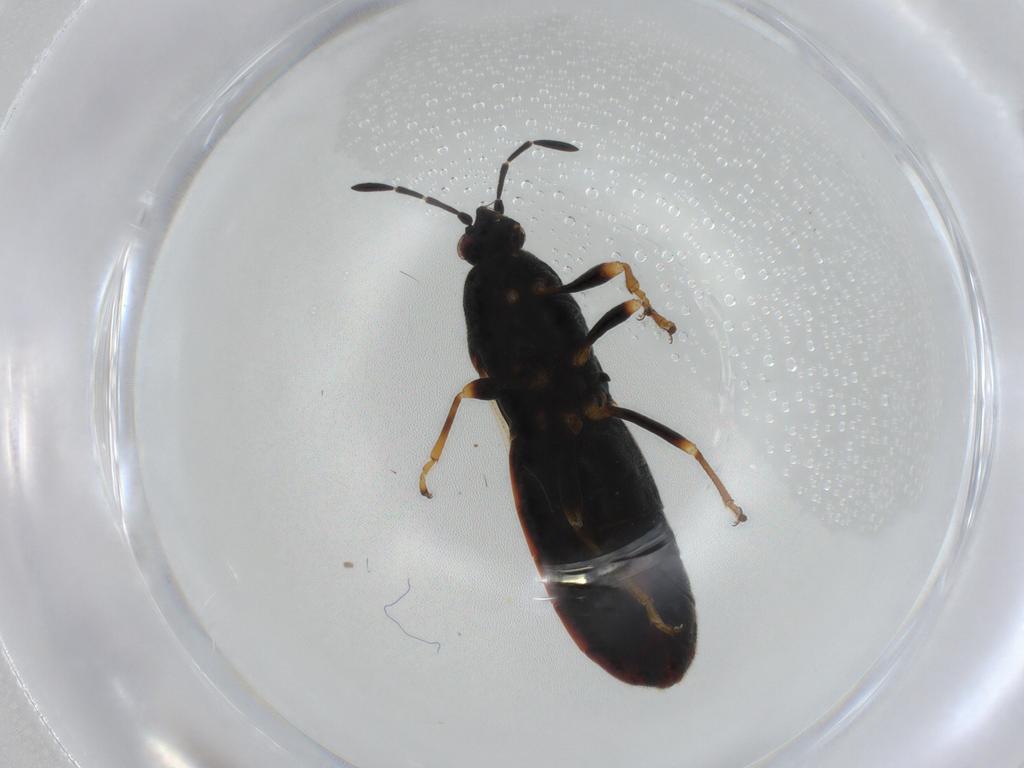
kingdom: Animalia
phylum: Arthropoda
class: Insecta
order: Hemiptera
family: Blissidae
